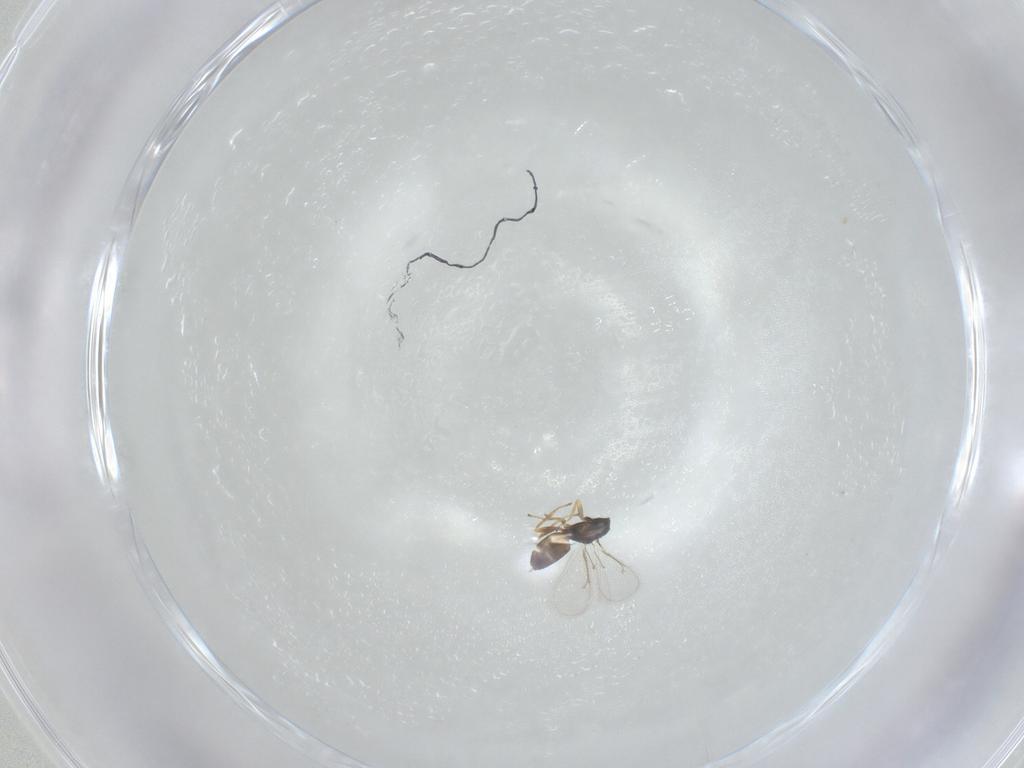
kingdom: Animalia
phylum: Arthropoda
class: Insecta
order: Hymenoptera
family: Eulophidae
